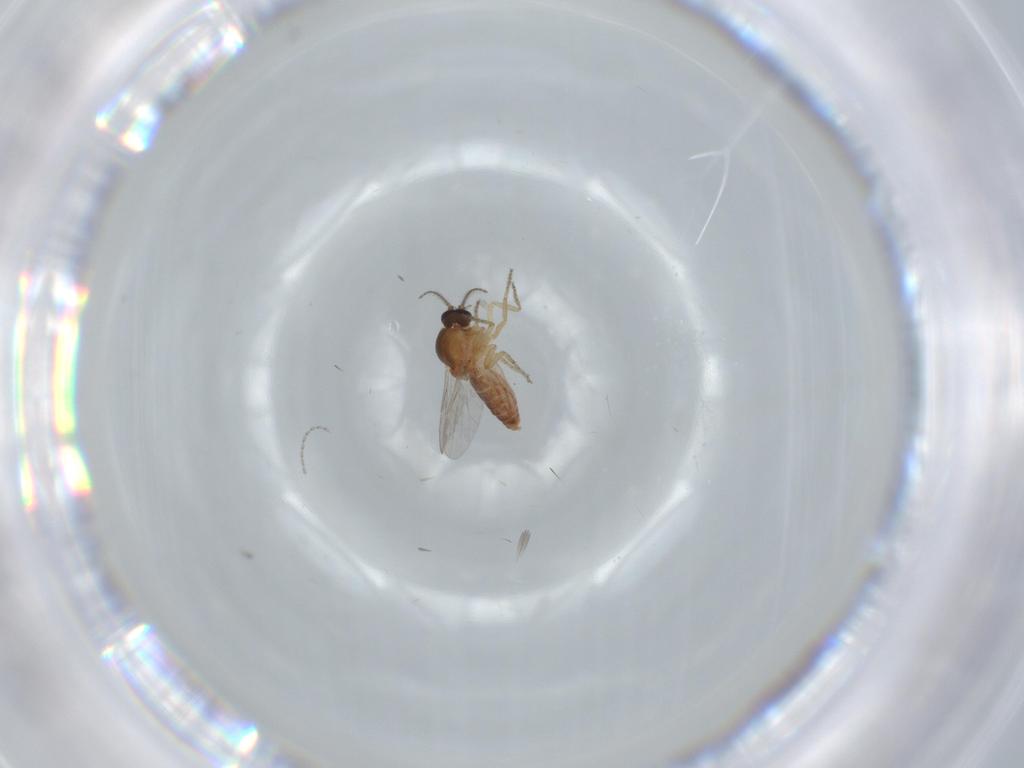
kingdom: Animalia
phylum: Arthropoda
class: Insecta
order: Diptera
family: Ceratopogonidae
